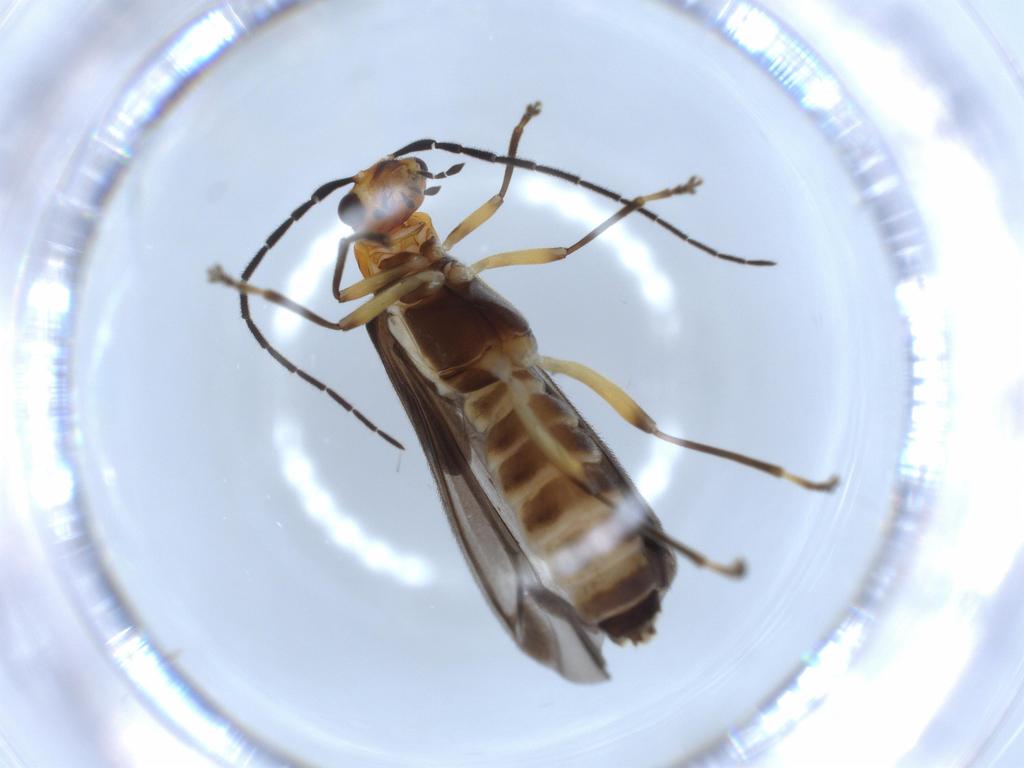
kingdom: Animalia
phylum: Arthropoda
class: Insecta
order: Coleoptera
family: Cantharidae
